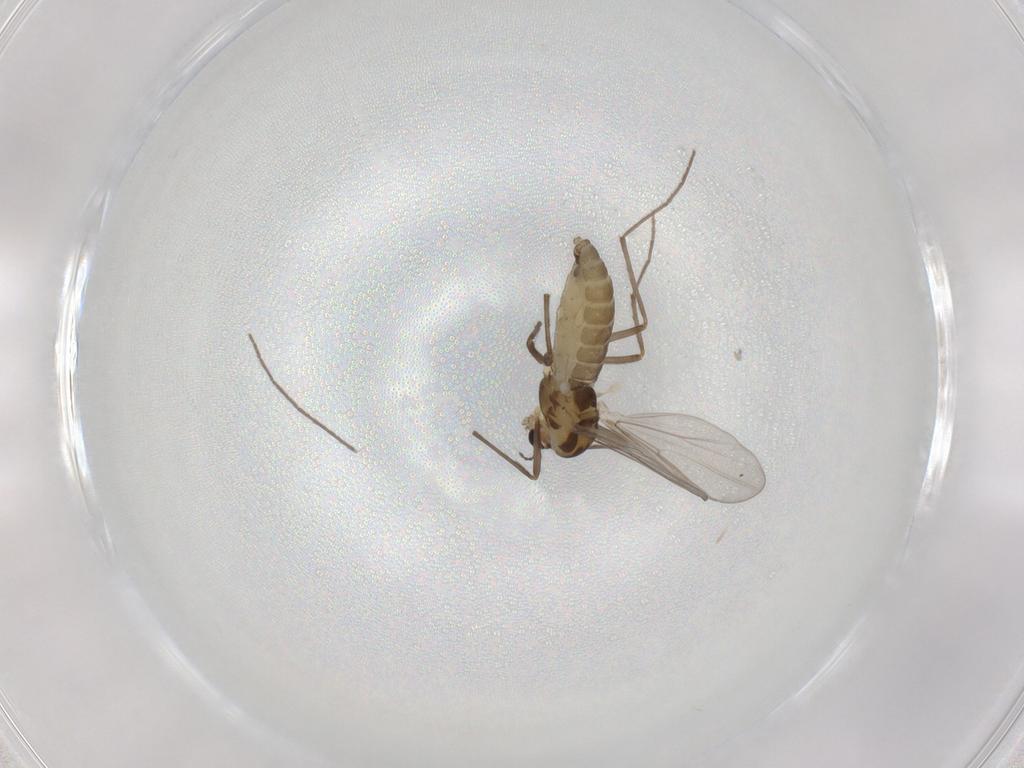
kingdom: Animalia
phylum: Arthropoda
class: Insecta
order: Diptera
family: Chironomidae
